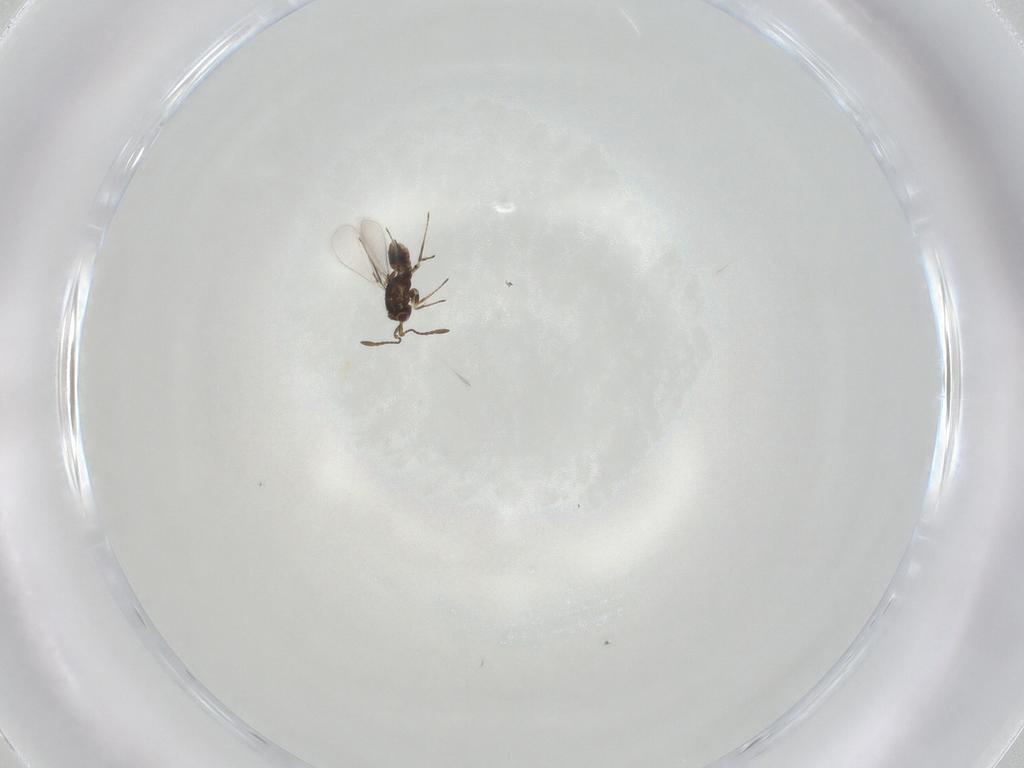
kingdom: Animalia
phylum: Arthropoda
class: Insecta
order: Hymenoptera
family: Mymaridae
